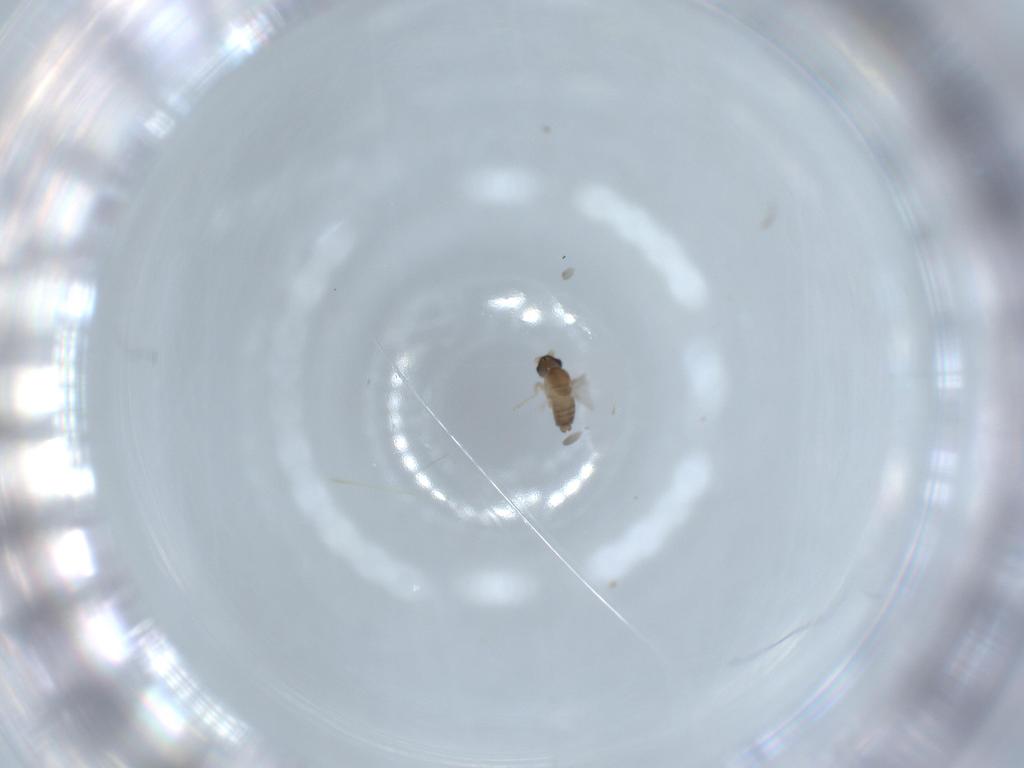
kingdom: Animalia
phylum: Arthropoda
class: Insecta
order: Diptera
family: Cecidomyiidae
